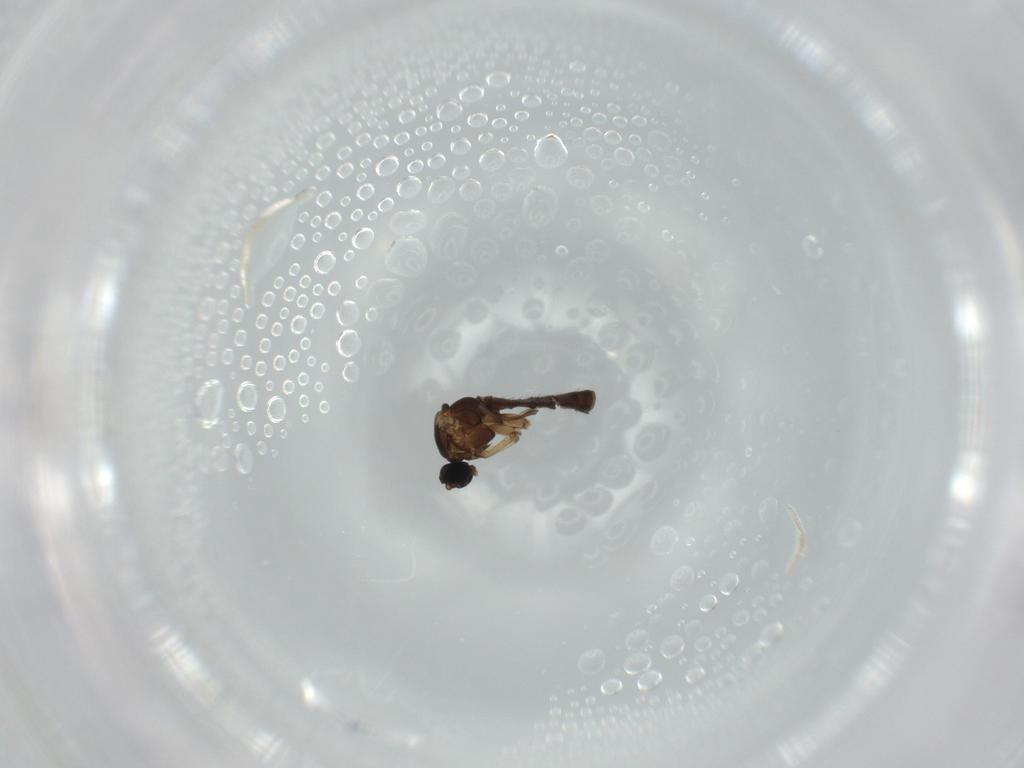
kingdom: Animalia
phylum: Arthropoda
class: Insecta
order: Diptera
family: Sciaridae
